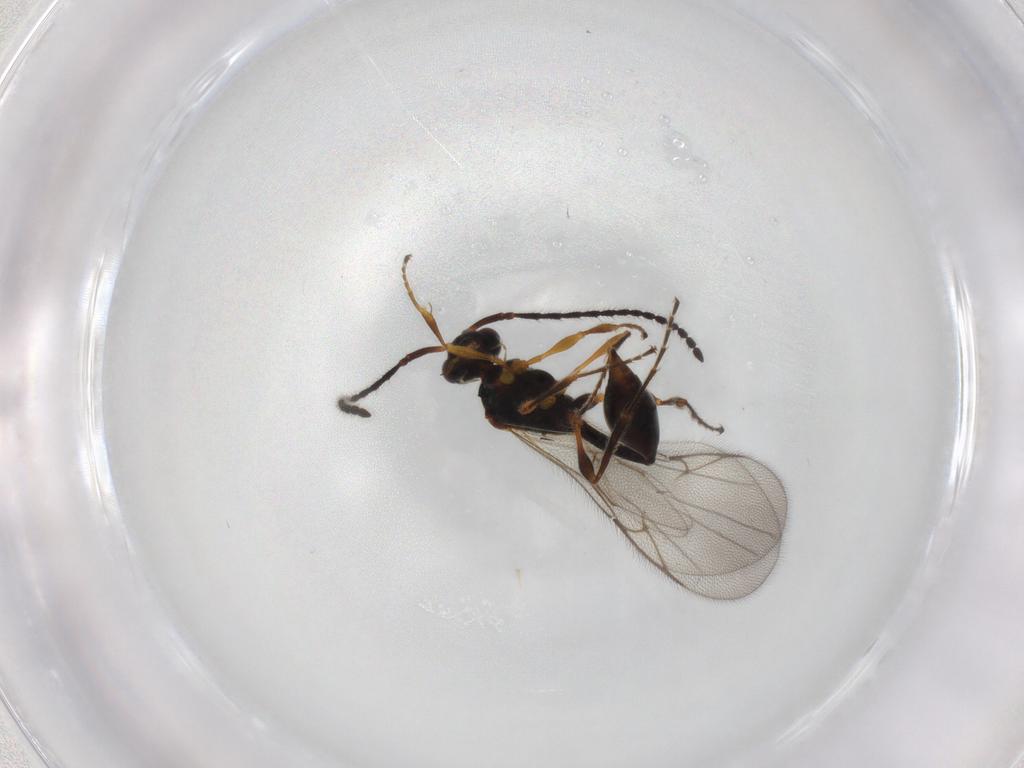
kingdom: Animalia
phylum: Arthropoda
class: Insecta
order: Hymenoptera
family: Diapriidae
